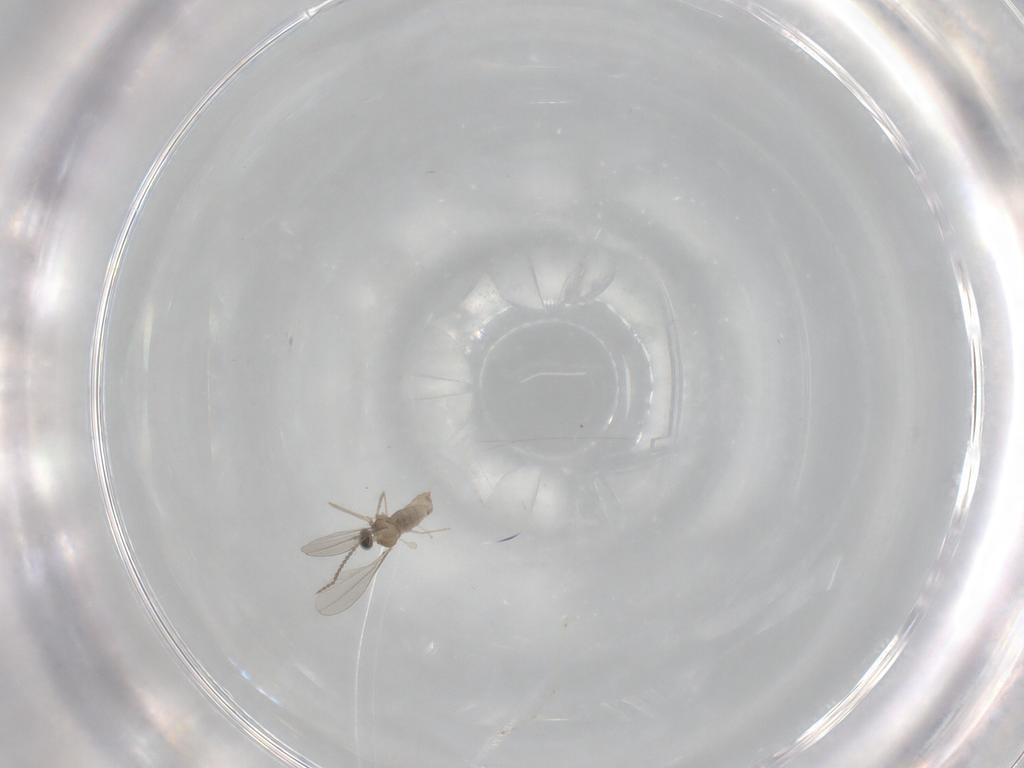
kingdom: Animalia
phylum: Arthropoda
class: Insecta
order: Diptera
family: Cecidomyiidae
